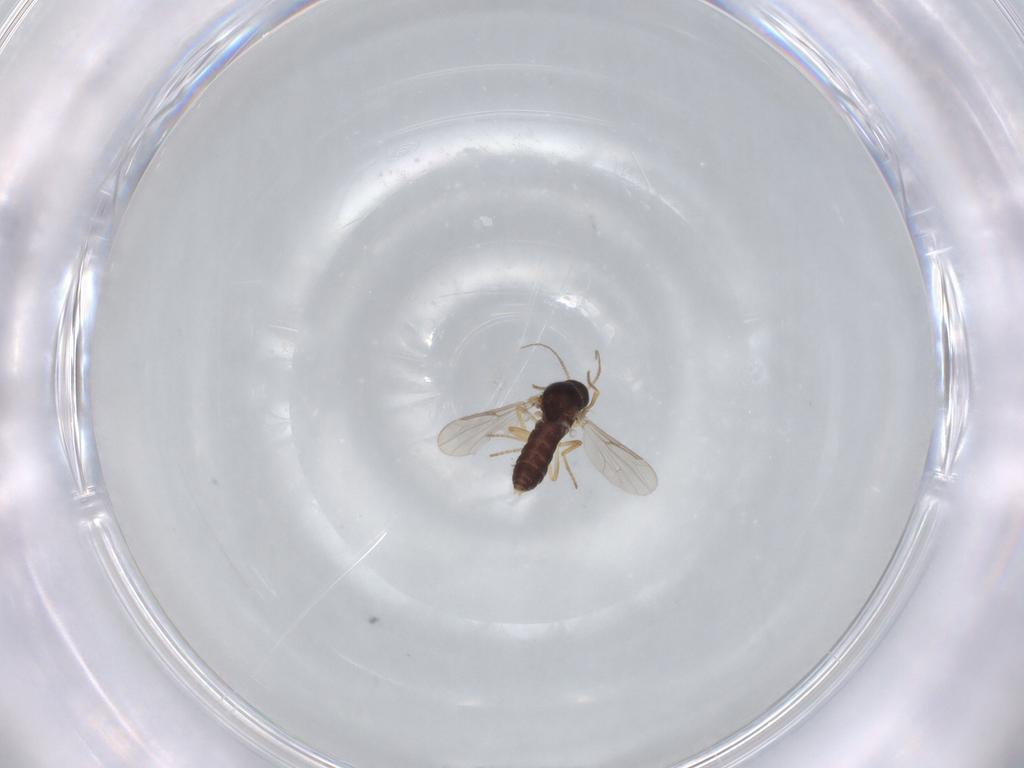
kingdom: Animalia
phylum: Arthropoda
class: Insecta
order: Diptera
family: Ceratopogonidae
